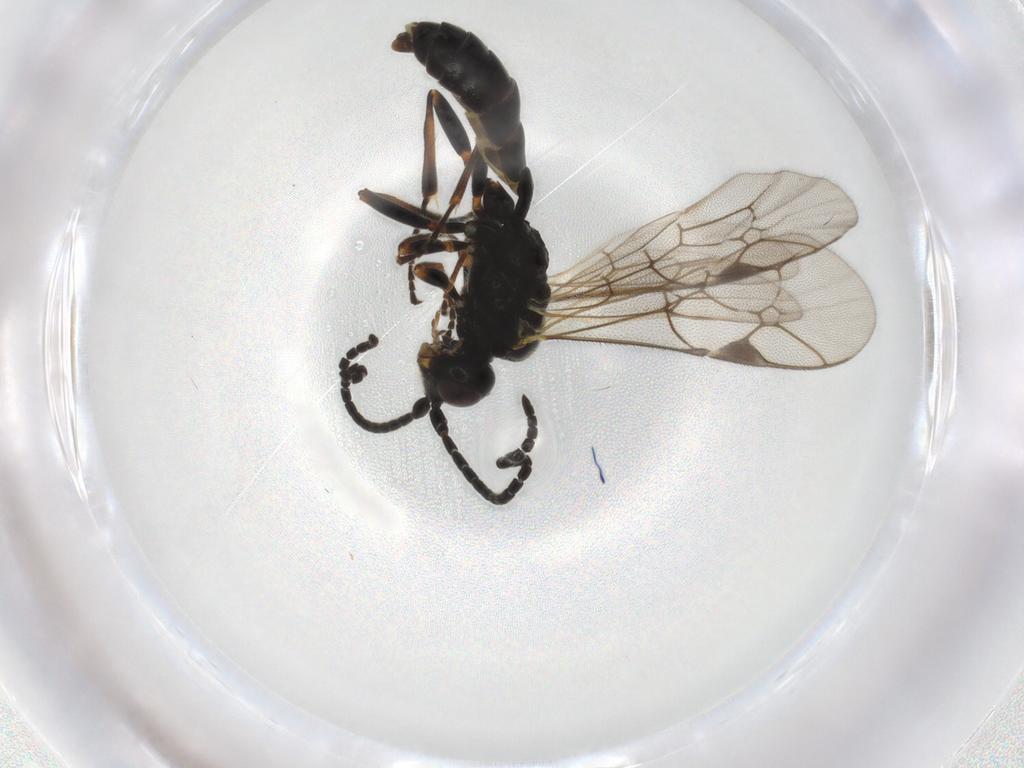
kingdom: Animalia
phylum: Arthropoda
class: Insecta
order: Hymenoptera
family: Ichneumonidae
